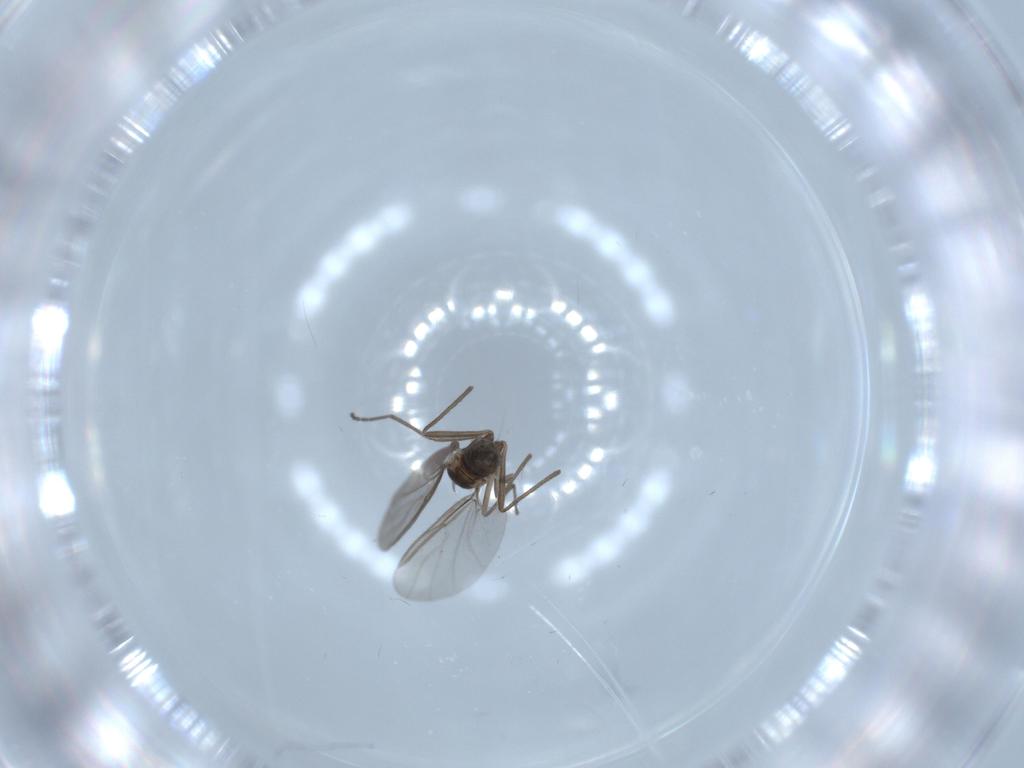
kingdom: Animalia
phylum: Arthropoda
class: Insecta
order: Diptera
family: Cecidomyiidae
